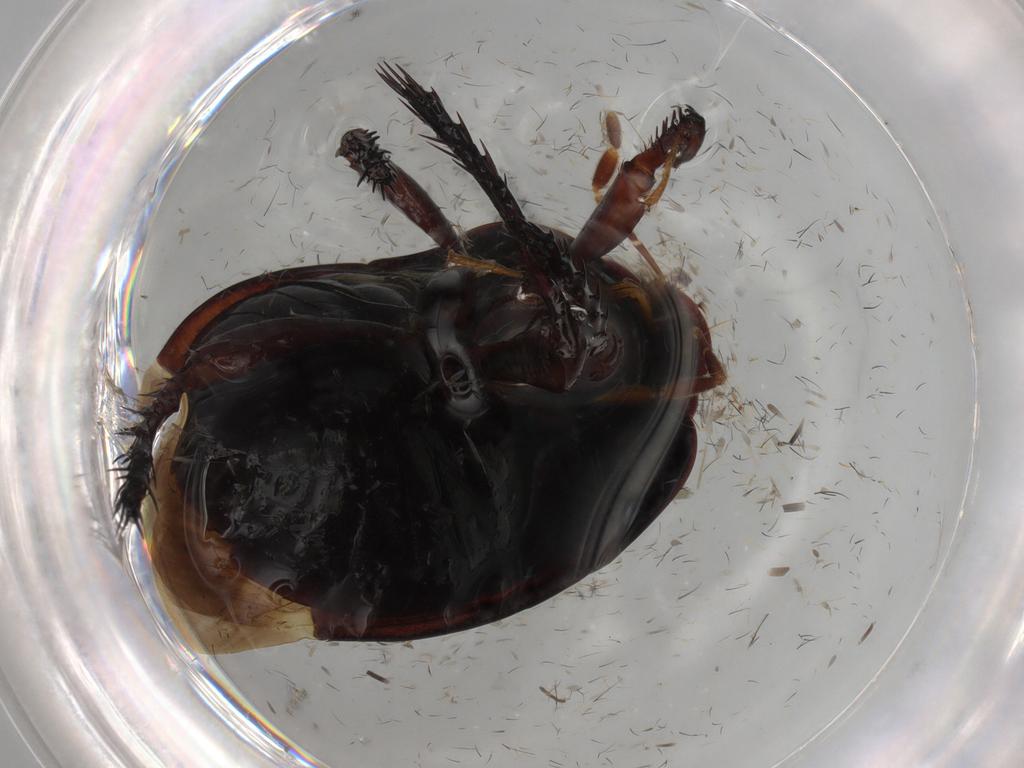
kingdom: Animalia
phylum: Arthropoda
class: Insecta
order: Hemiptera
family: Cydnidae
